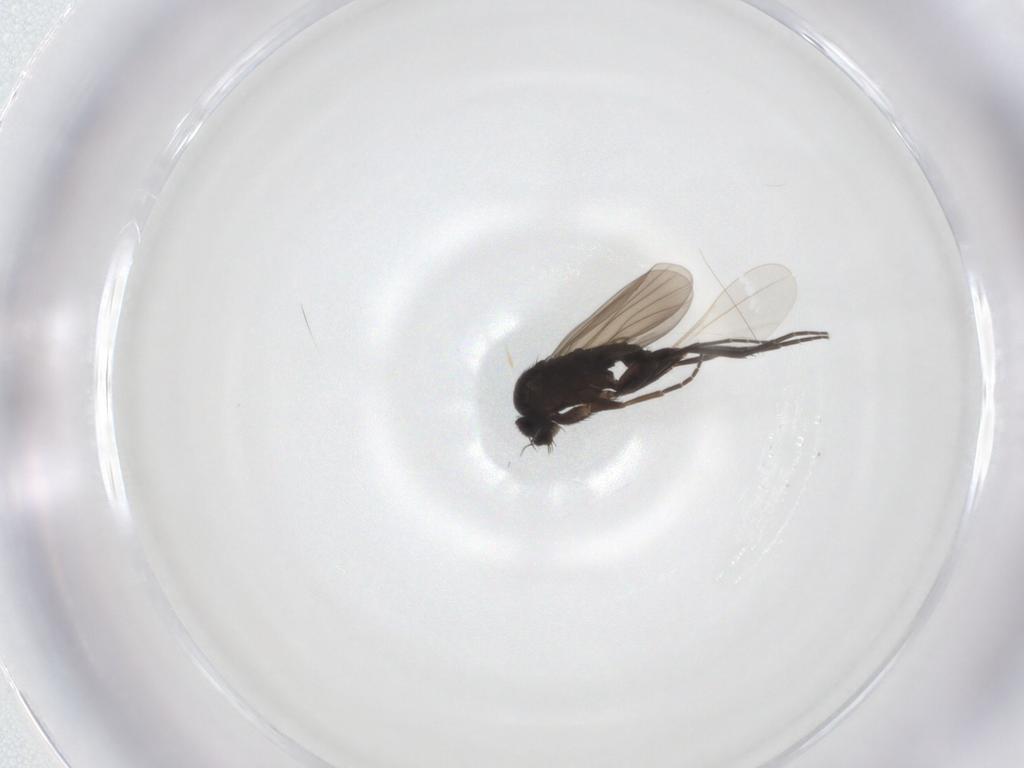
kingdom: Animalia
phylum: Arthropoda
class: Insecta
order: Diptera
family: Phoridae
